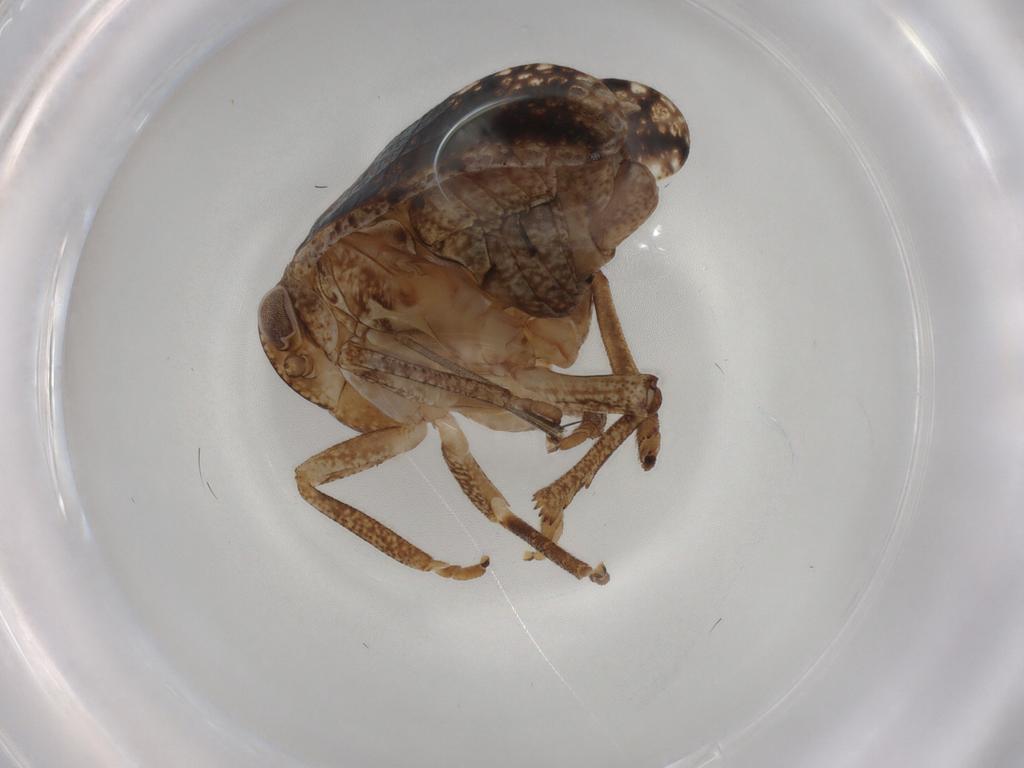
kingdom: Animalia
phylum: Arthropoda
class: Insecta
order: Hemiptera
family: Tropiduchidae
